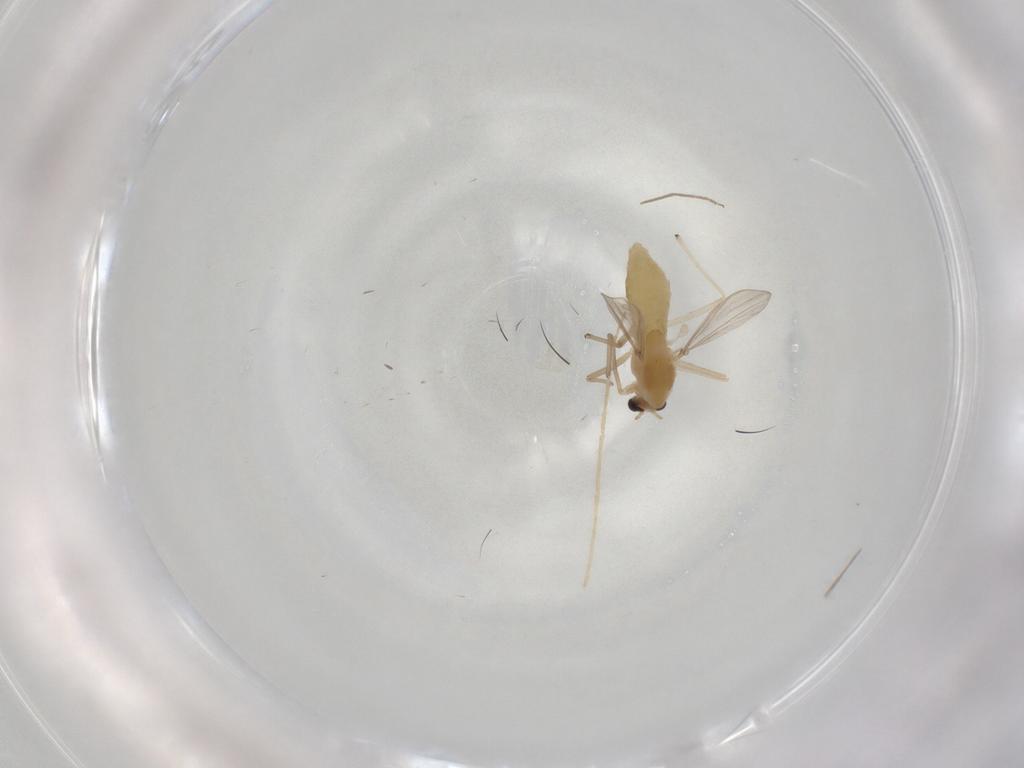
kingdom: Animalia
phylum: Arthropoda
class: Insecta
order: Diptera
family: Chironomidae
